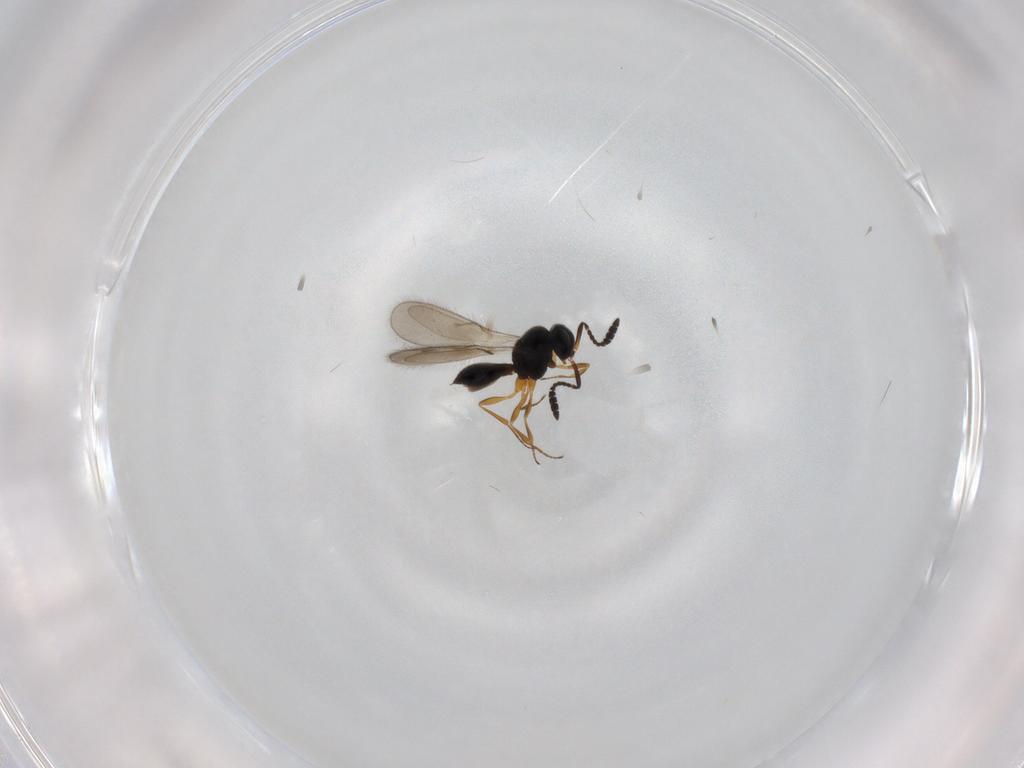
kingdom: Animalia
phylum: Arthropoda
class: Insecta
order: Hymenoptera
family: Scelionidae
